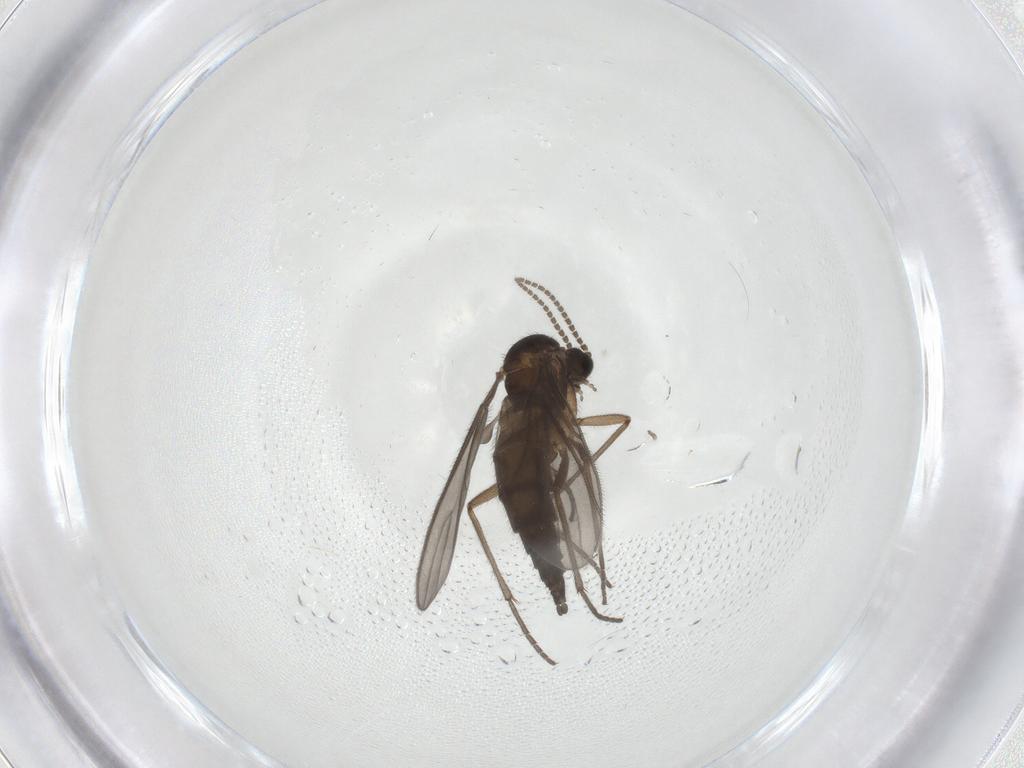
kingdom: Animalia
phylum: Arthropoda
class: Insecta
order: Diptera
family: Sciaridae
